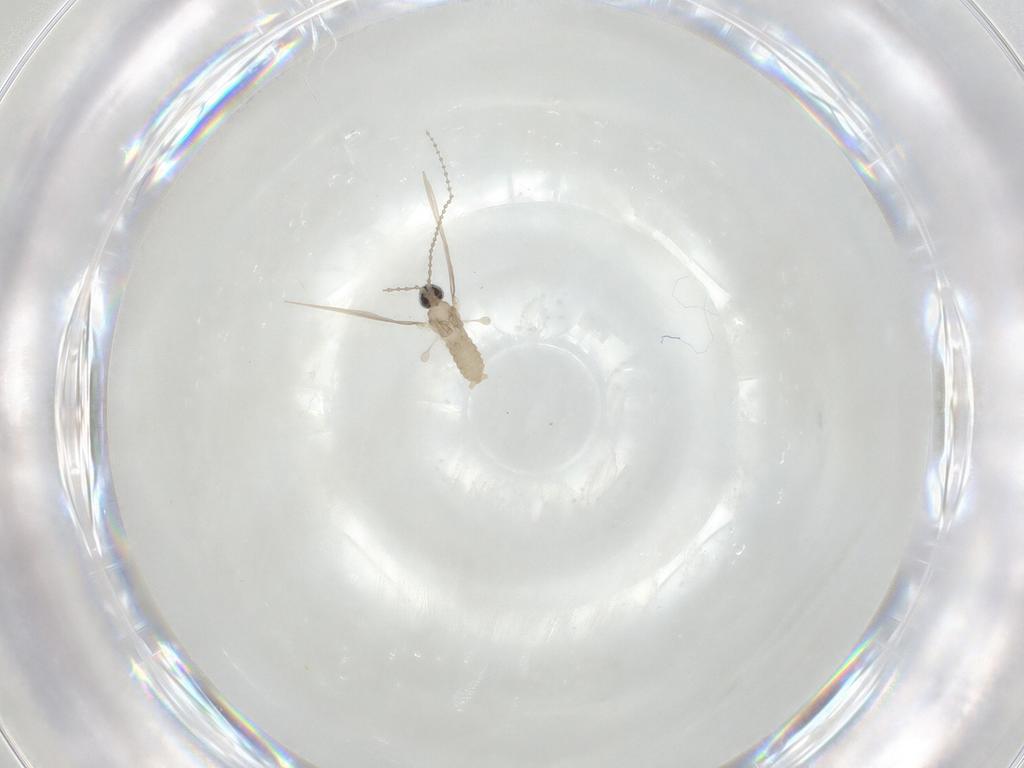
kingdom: Animalia
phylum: Arthropoda
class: Insecta
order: Diptera
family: Cecidomyiidae
